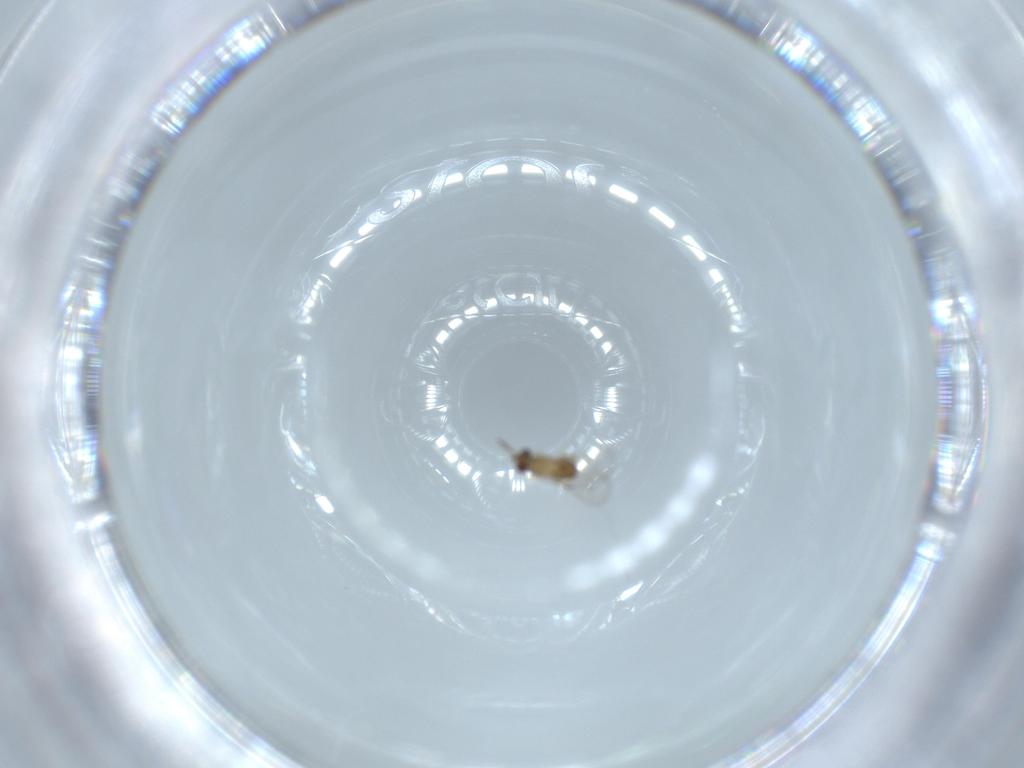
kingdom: Animalia
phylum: Arthropoda
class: Insecta
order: Hymenoptera
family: Trichogrammatidae
